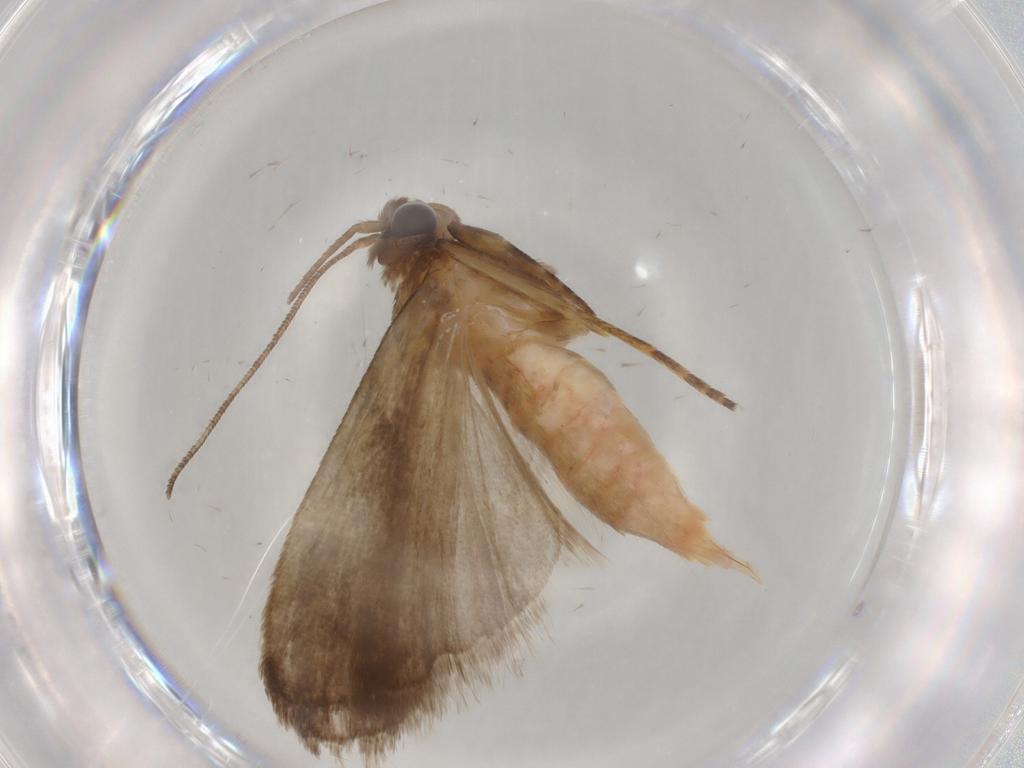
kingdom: Animalia
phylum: Arthropoda
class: Insecta
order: Lepidoptera
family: Noctuidae
